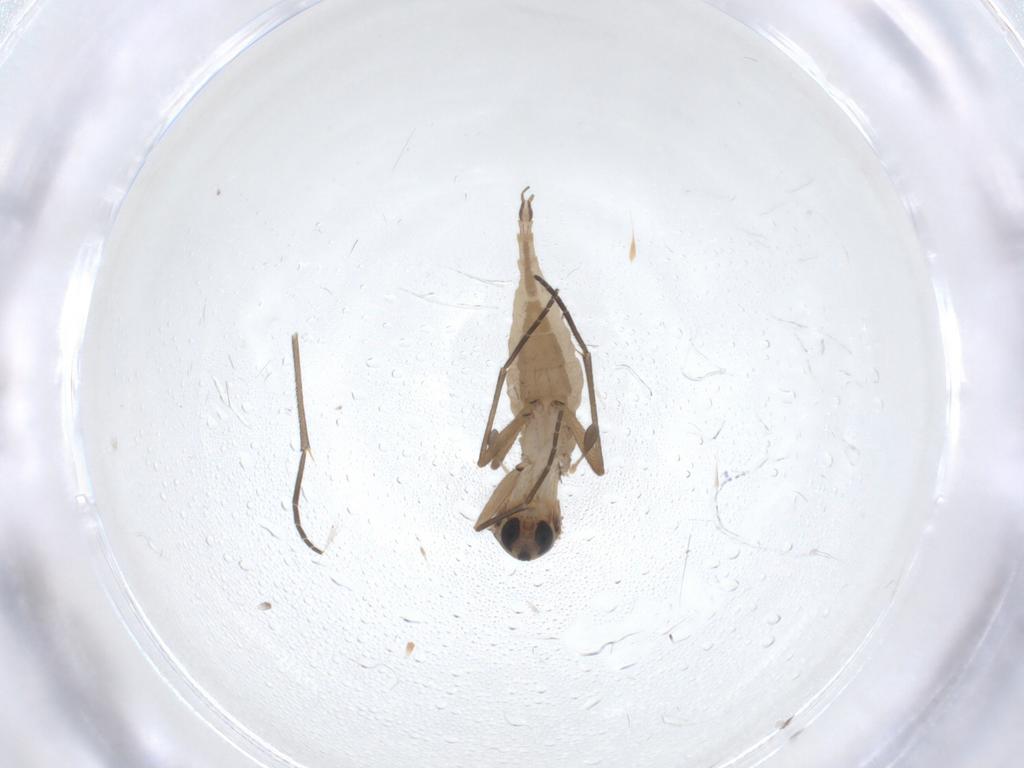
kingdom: Animalia
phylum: Arthropoda
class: Insecta
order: Diptera
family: Sciaridae
